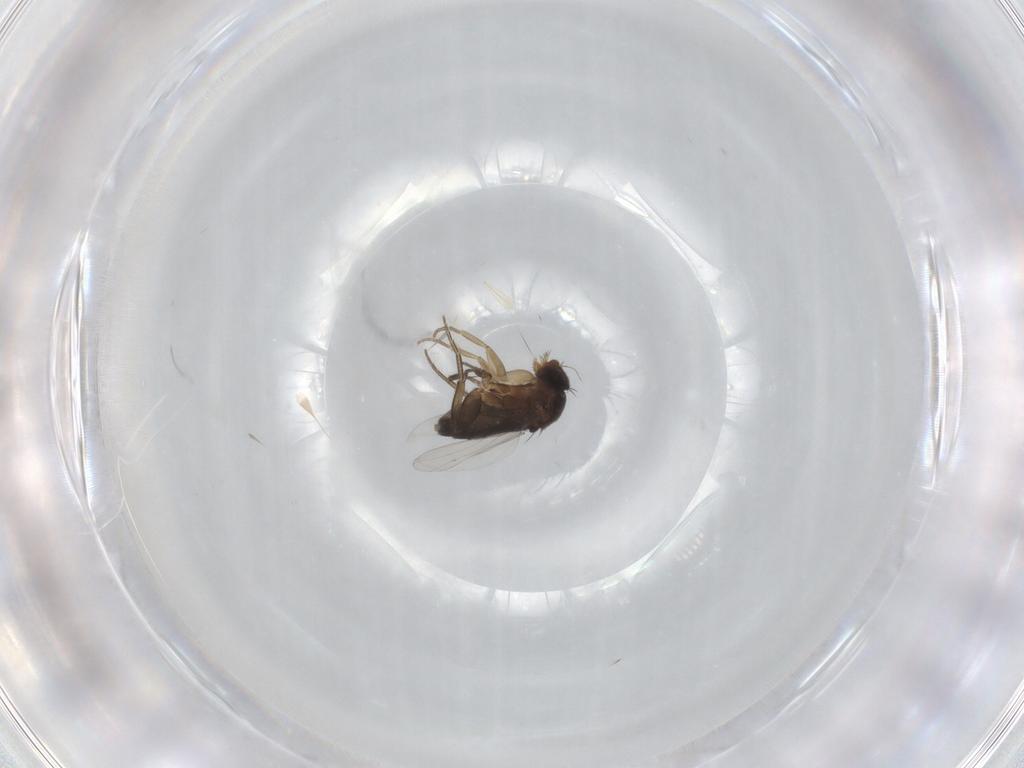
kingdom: Animalia
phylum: Arthropoda
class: Insecta
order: Diptera
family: Phoridae
